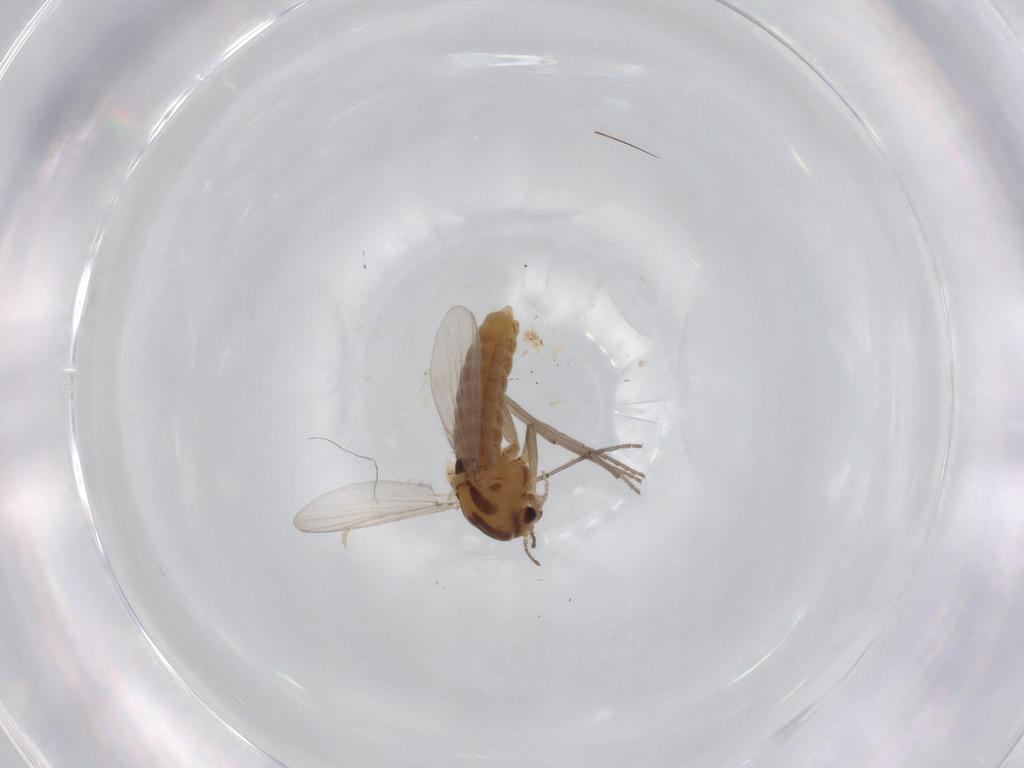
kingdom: Animalia
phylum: Arthropoda
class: Insecta
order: Diptera
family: Chironomidae
